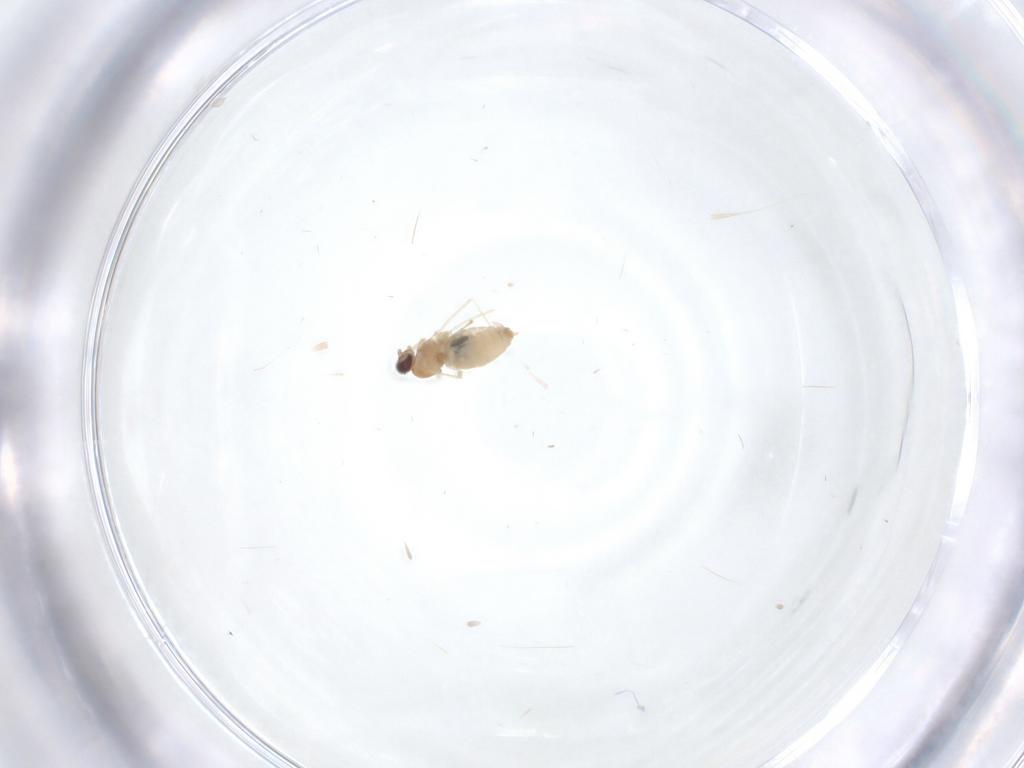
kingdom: Animalia
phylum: Arthropoda
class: Insecta
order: Diptera
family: Cecidomyiidae
